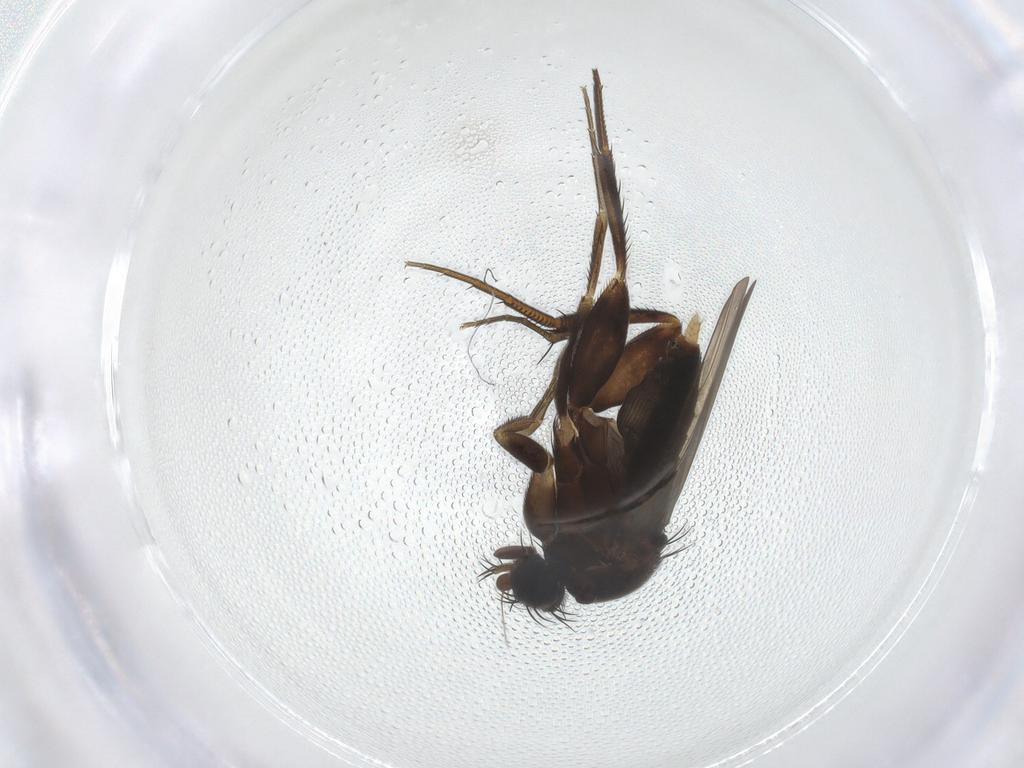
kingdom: Animalia
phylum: Arthropoda
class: Insecta
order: Diptera
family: Phoridae
